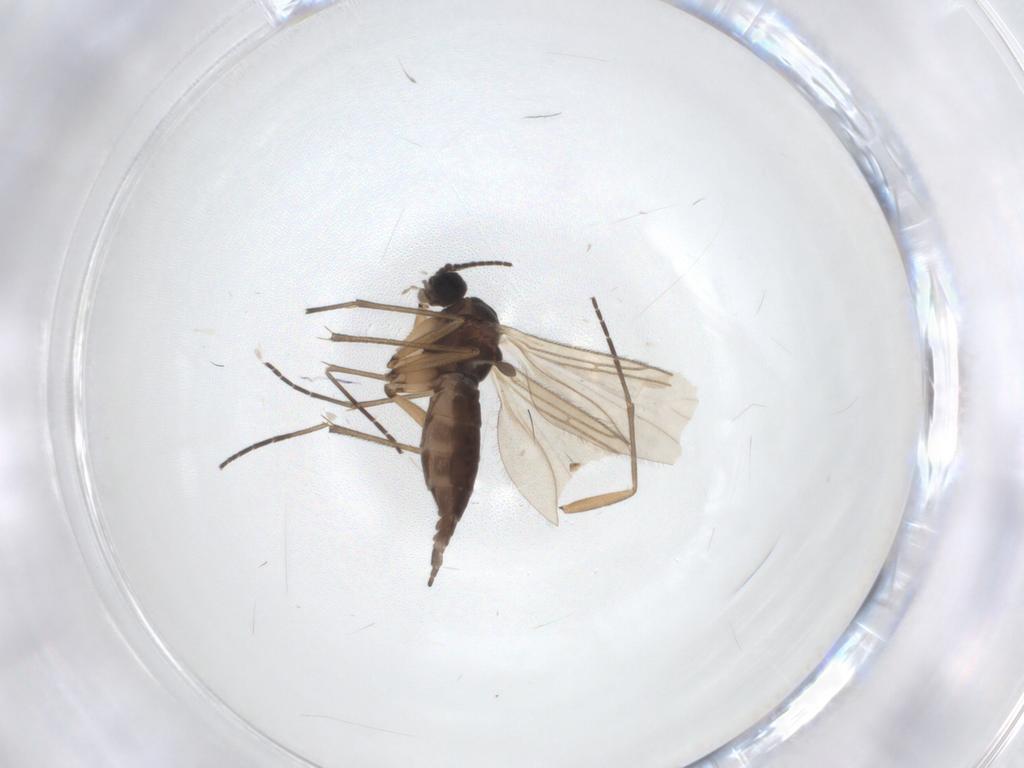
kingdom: Animalia
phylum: Arthropoda
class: Insecta
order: Diptera
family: Sciaridae
